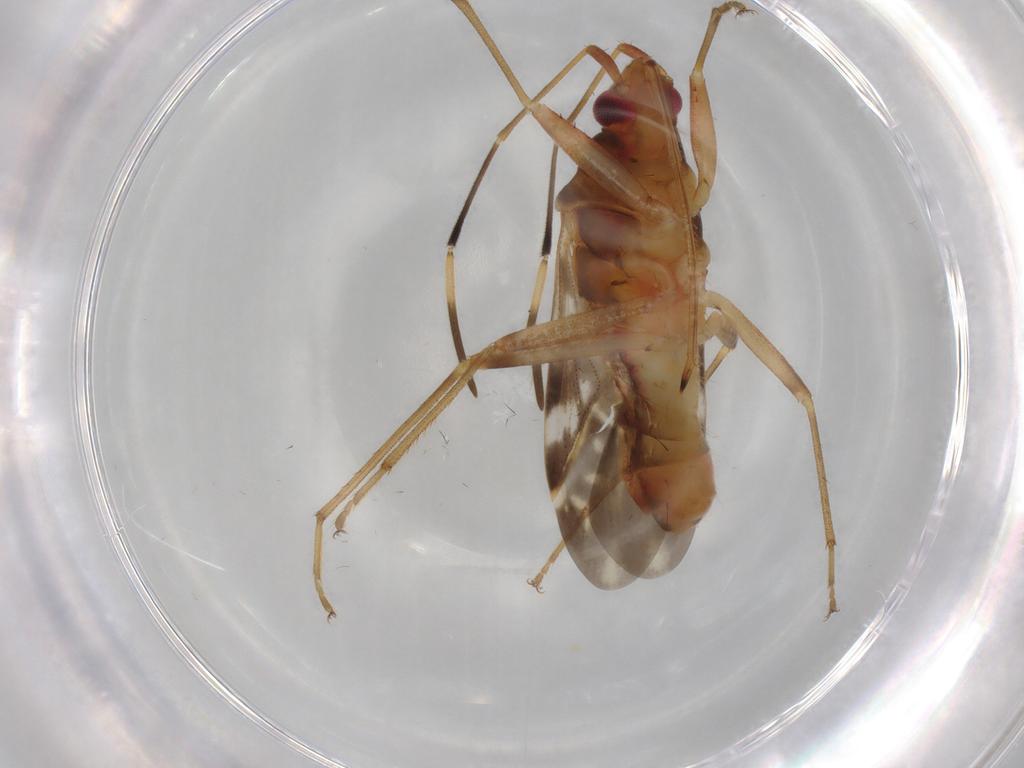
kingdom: Animalia
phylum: Arthropoda
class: Insecta
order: Hemiptera
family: Rhyparochromidae
